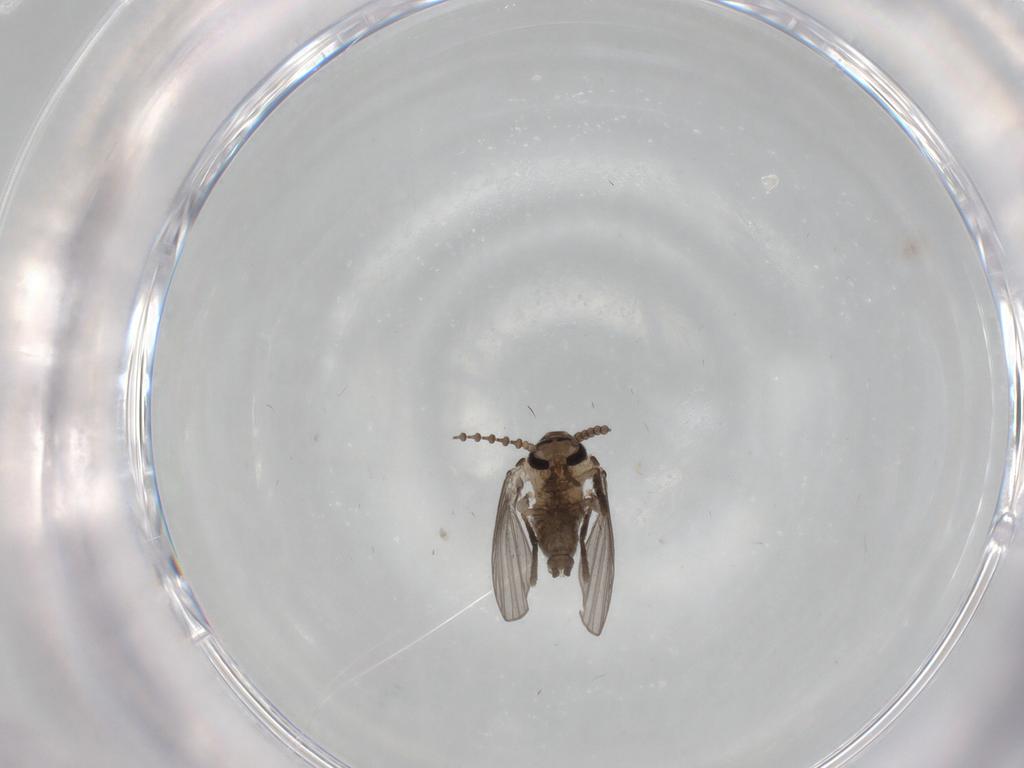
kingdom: Animalia
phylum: Arthropoda
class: Insecta
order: Diptera
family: Psychodidae
